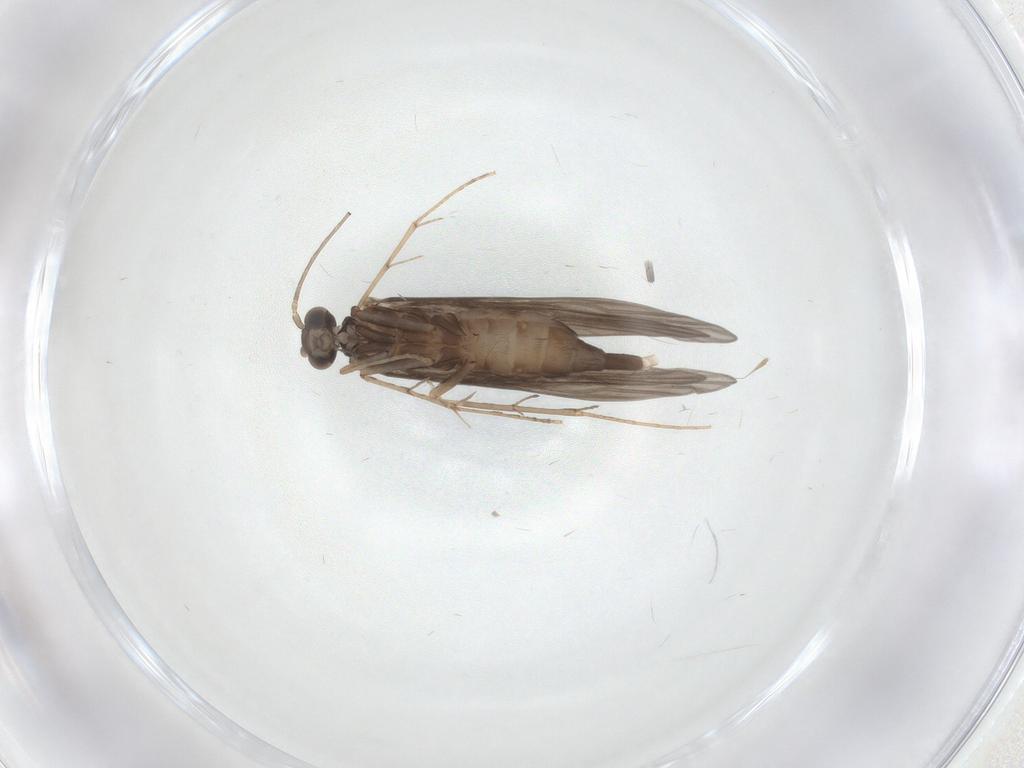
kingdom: Animalia
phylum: Arthropoda
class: Insecta
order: Trichoptera
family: Xiphocentronidae
